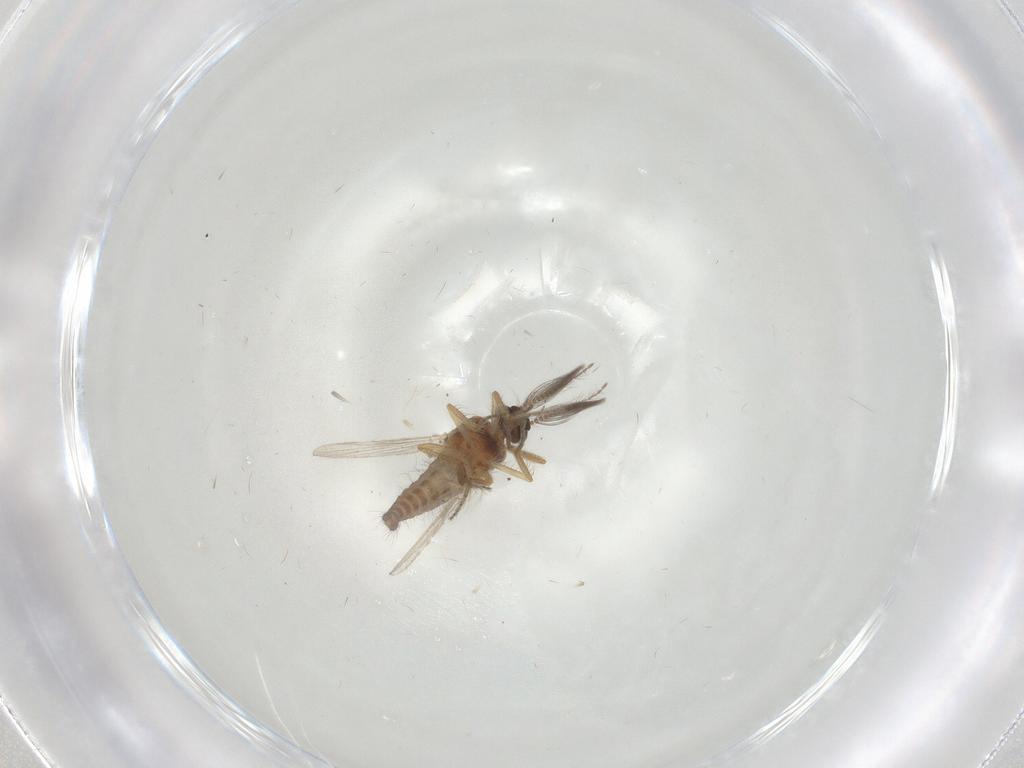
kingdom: Animalia
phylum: Arthropoda
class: Insecta
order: Diptera
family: Ceratopogonidae
